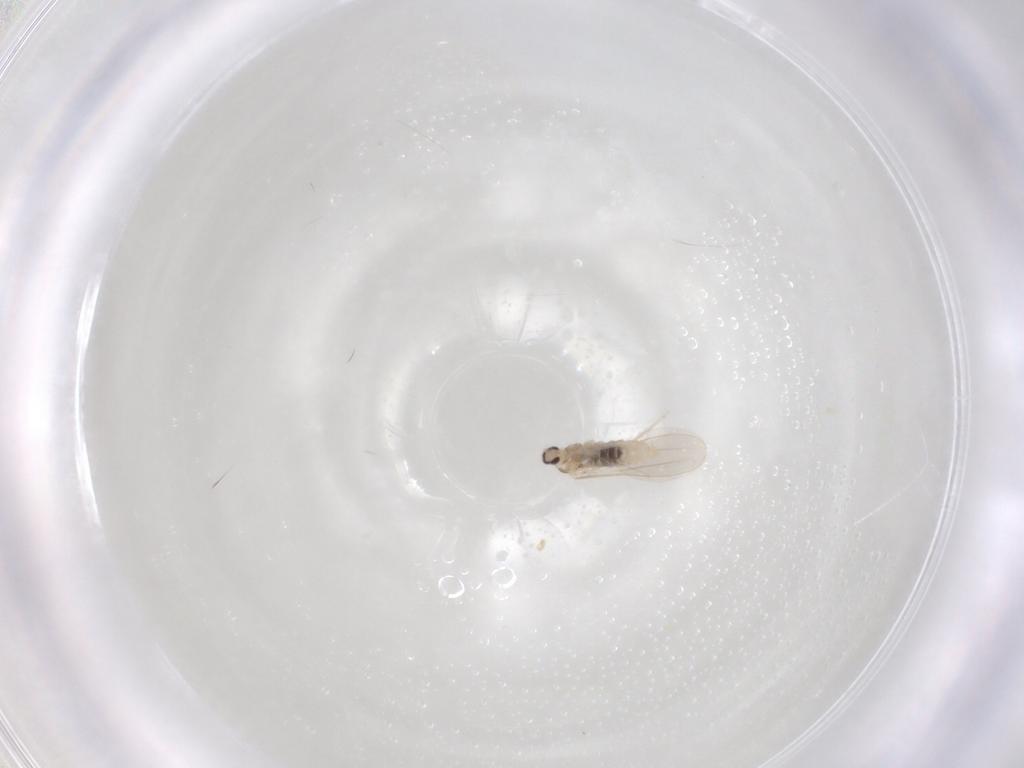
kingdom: Animalia
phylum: Arthropoda
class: Insecta
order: Diptera
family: Cecidomyiidae
